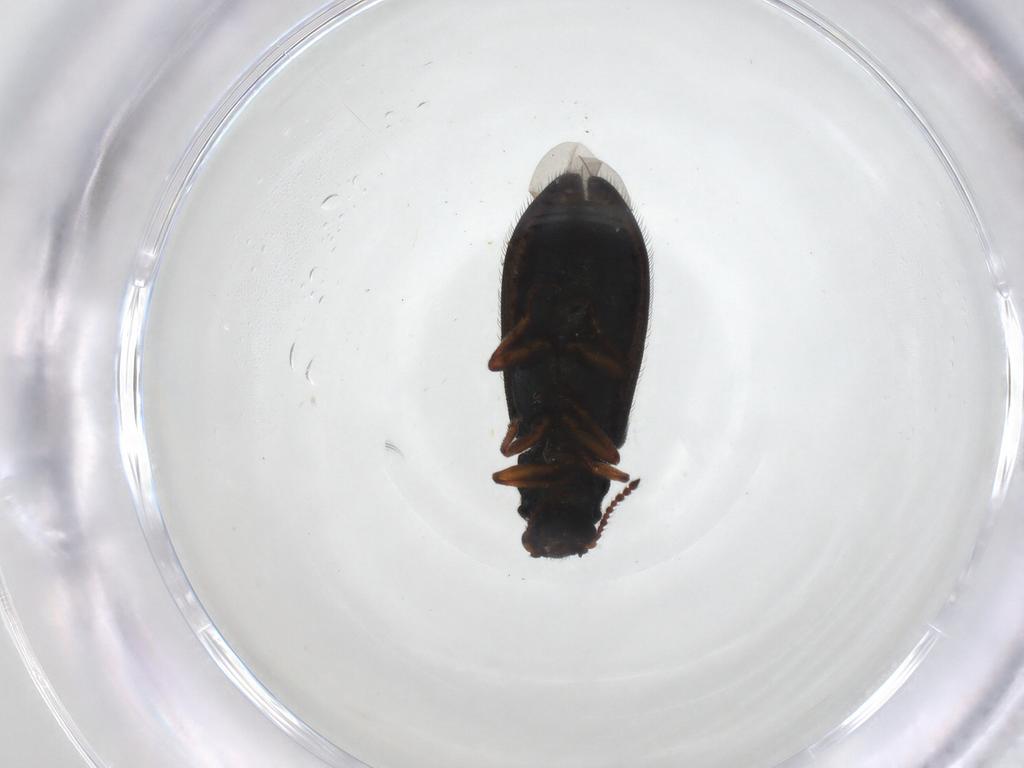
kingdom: Animalia
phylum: Arthropoda
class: Insecta
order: Coleoptera
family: Melyridae
